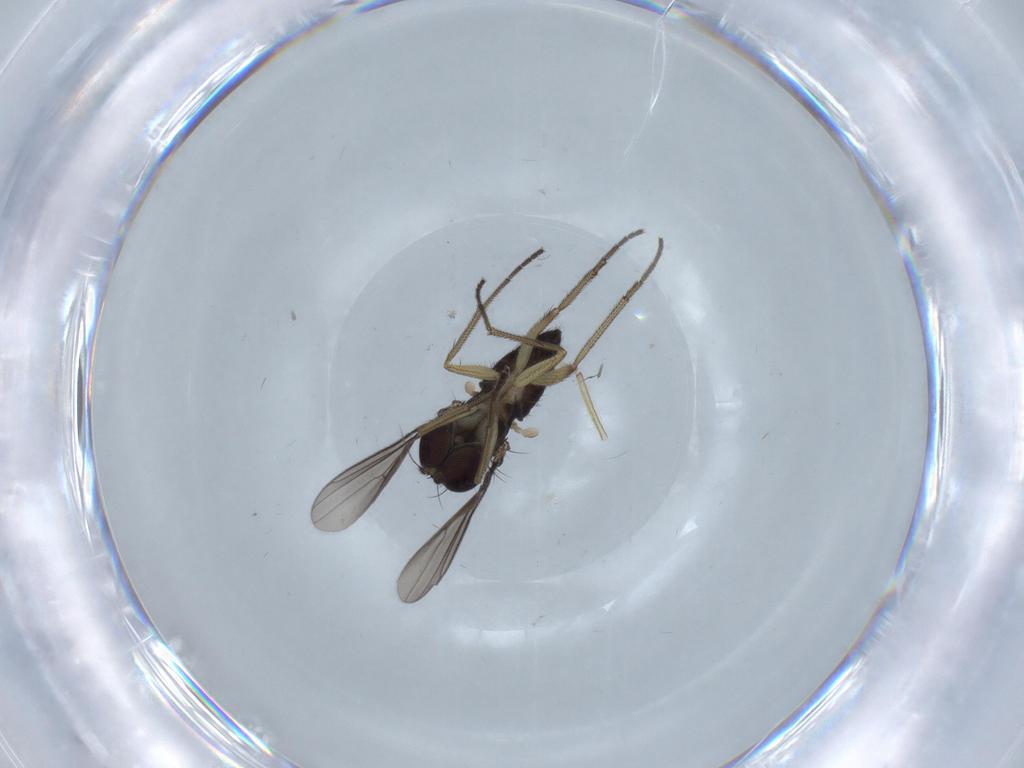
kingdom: Animalia
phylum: Arthropoda
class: Insecta
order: Diptera
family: Dolichopodidae
